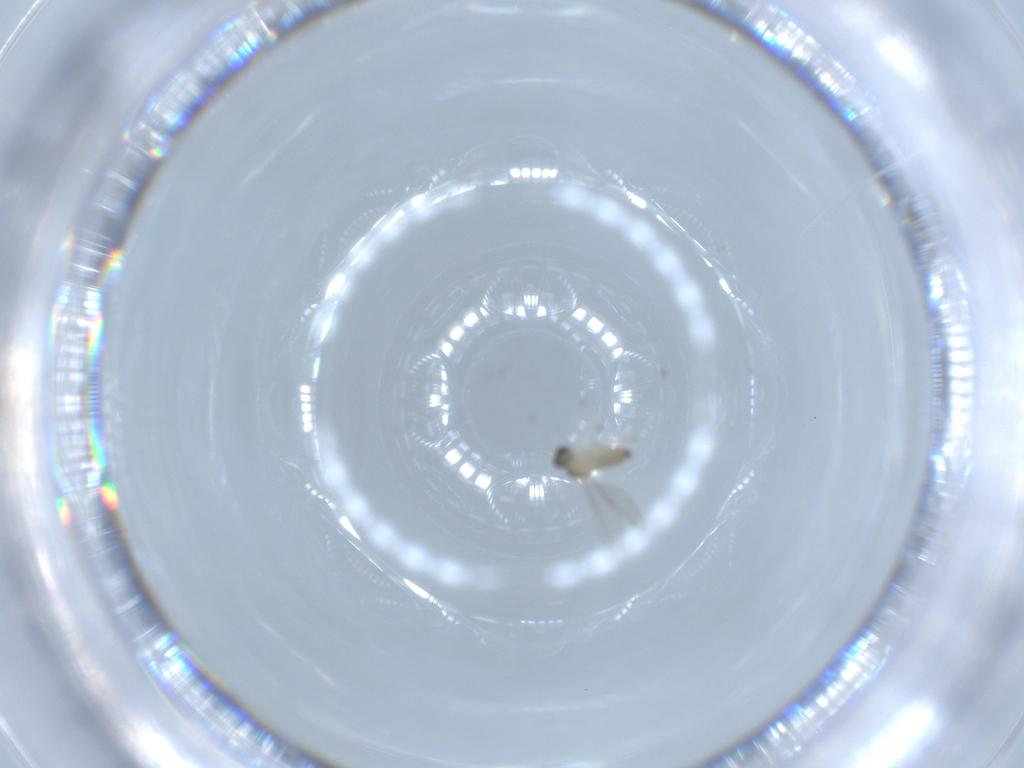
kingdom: Animalia
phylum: Arthropoda
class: Insecta
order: Diptera
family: Cecidomyiidae
